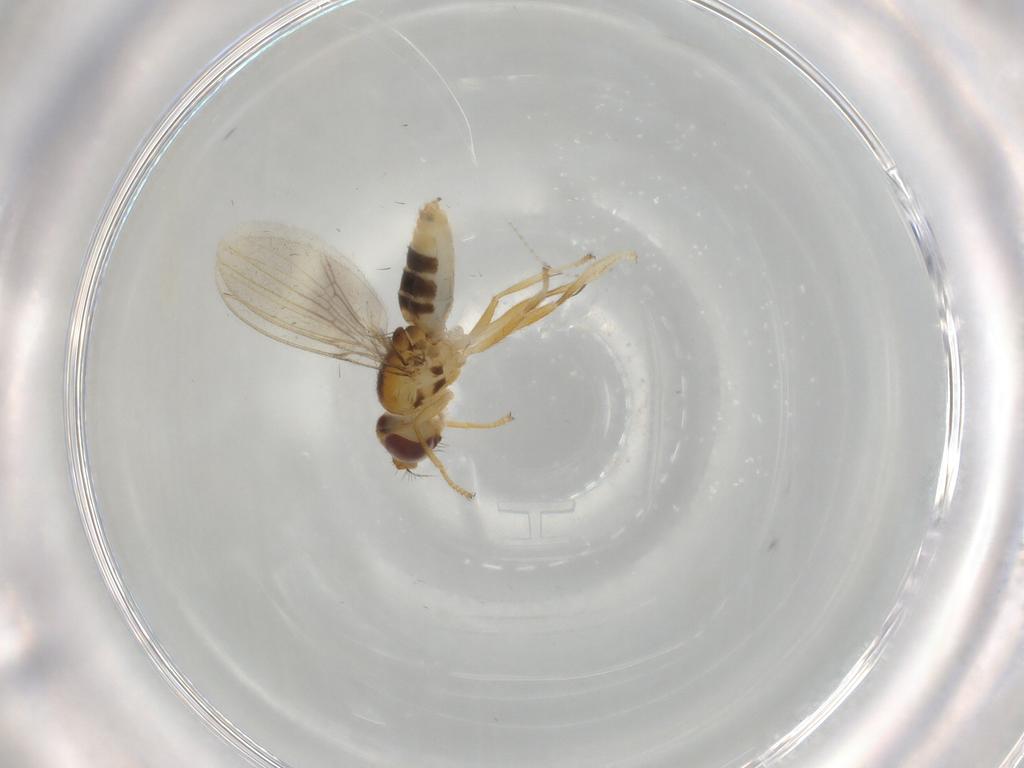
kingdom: Animalia
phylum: Arthropoda
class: Insecta
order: Diptera
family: Periscelididae
